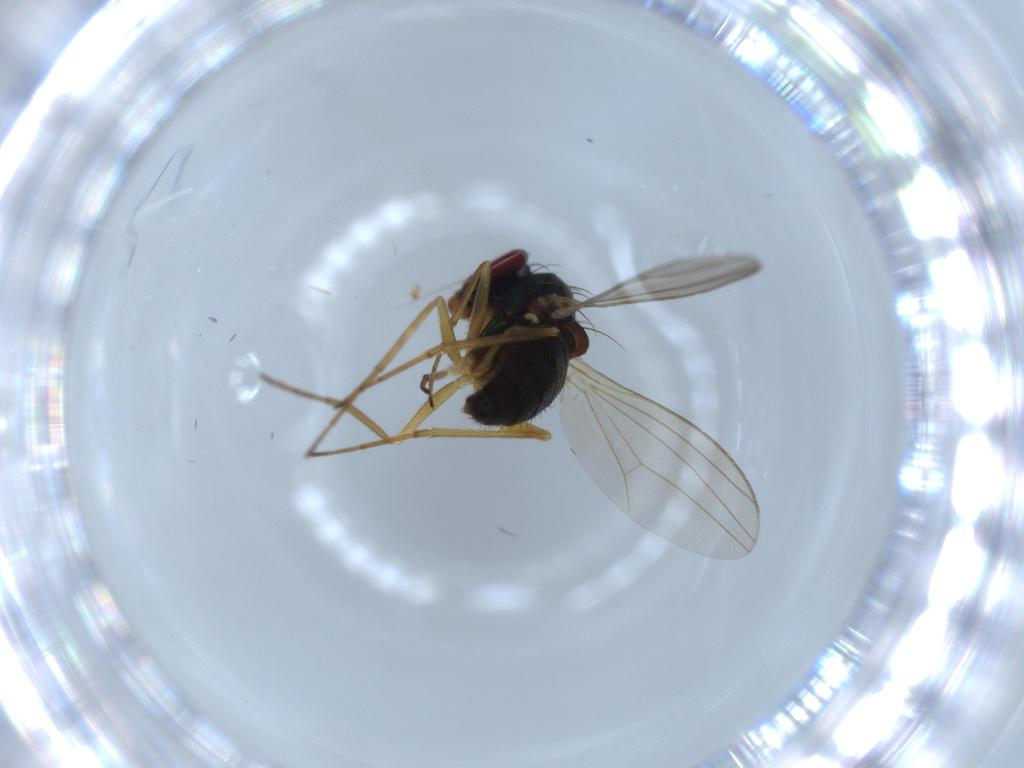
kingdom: Animalia
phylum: Arthropoda
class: Insecta
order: Diptera
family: Dolichopodidae
